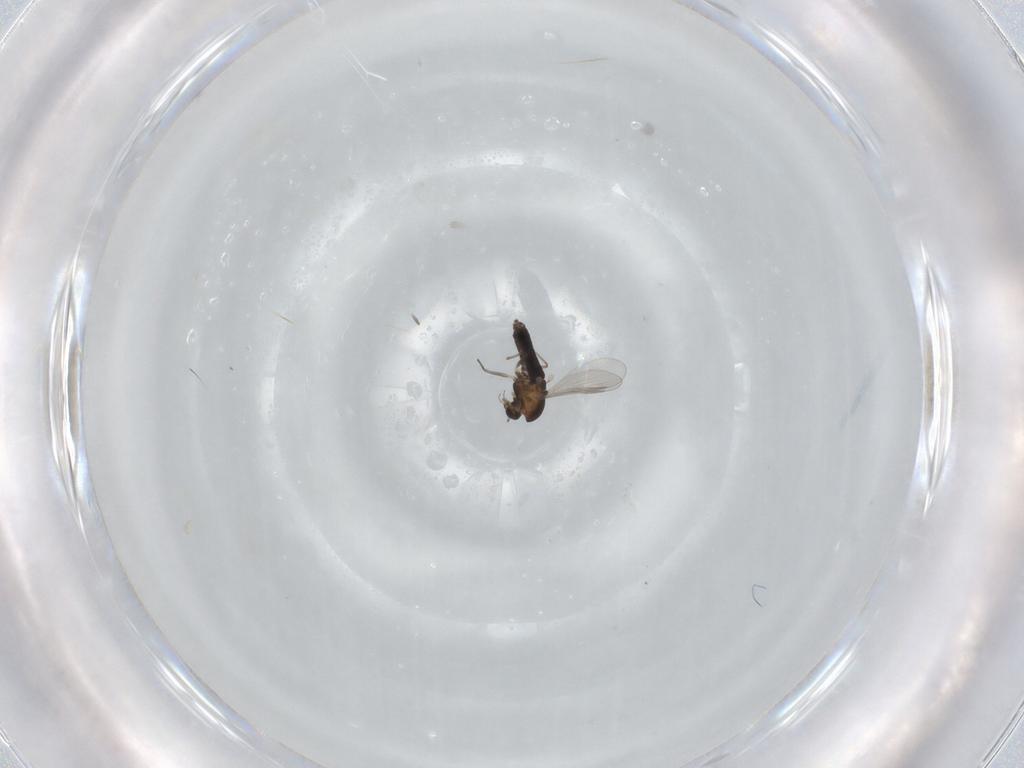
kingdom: Animalia
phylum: Arthropoda
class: Insecta
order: Diptera
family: Chironomidae
